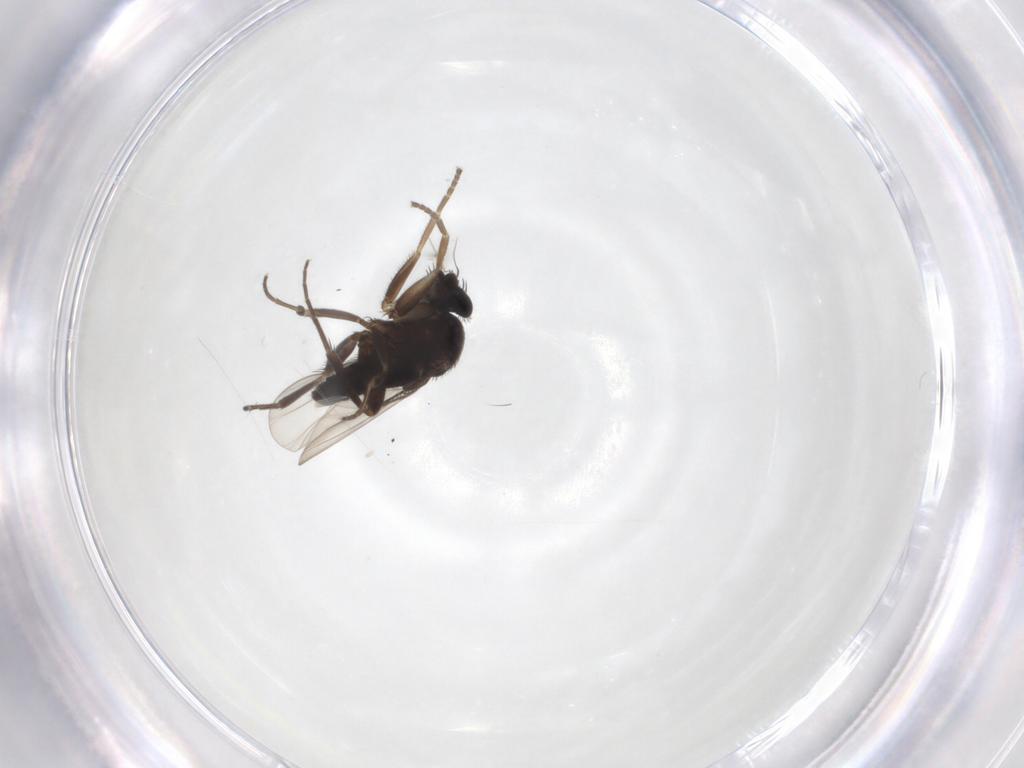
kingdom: Animalia
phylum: Arthropoda
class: Insecta
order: Diptera
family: Phoridae
